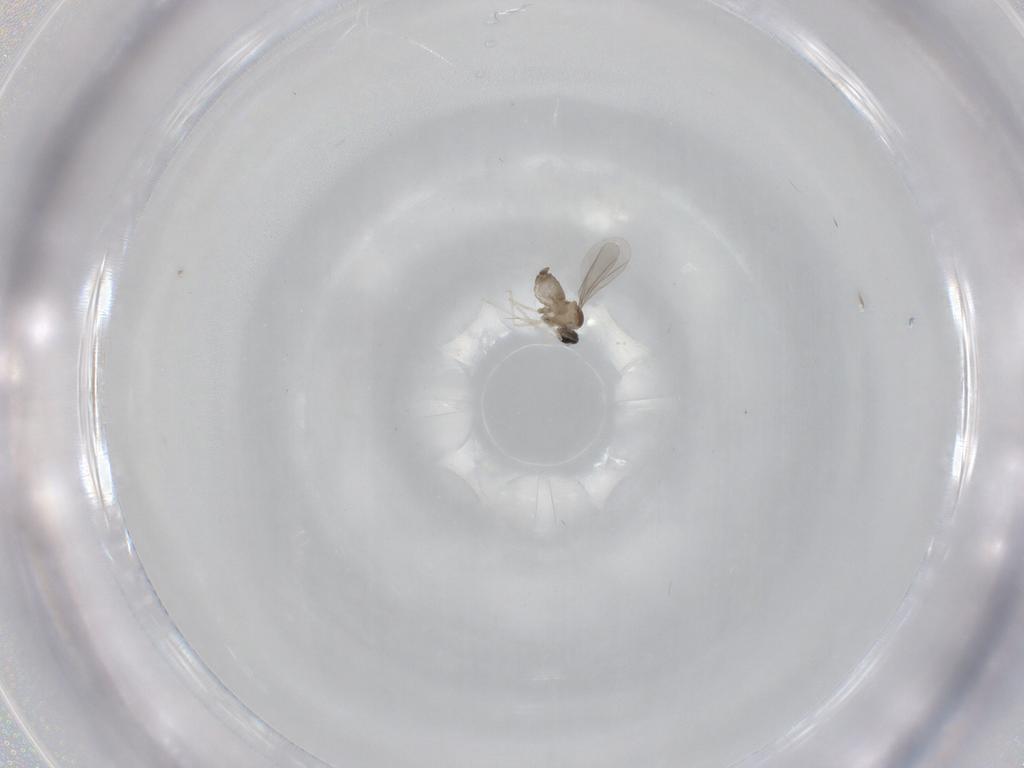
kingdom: Animalia
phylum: Arthropoda
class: Insecta
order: Diptera
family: Cecidomyiidae
